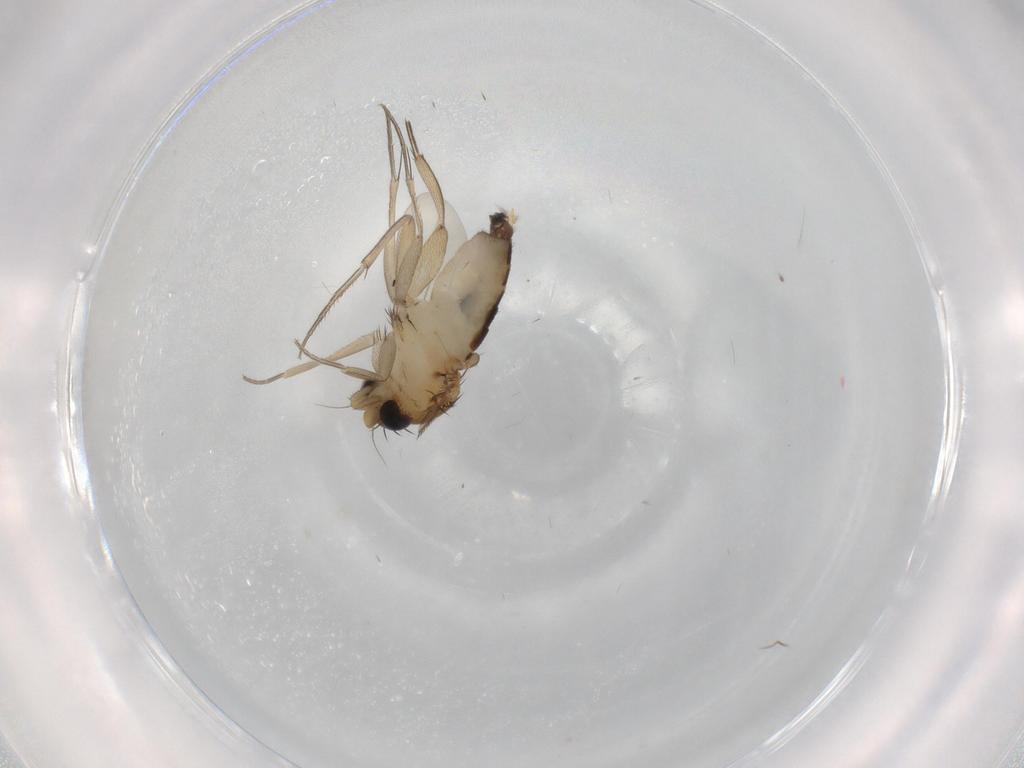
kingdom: Animalia
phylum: Arthropoda
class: Insecta
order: Diptera
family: Phoridae
